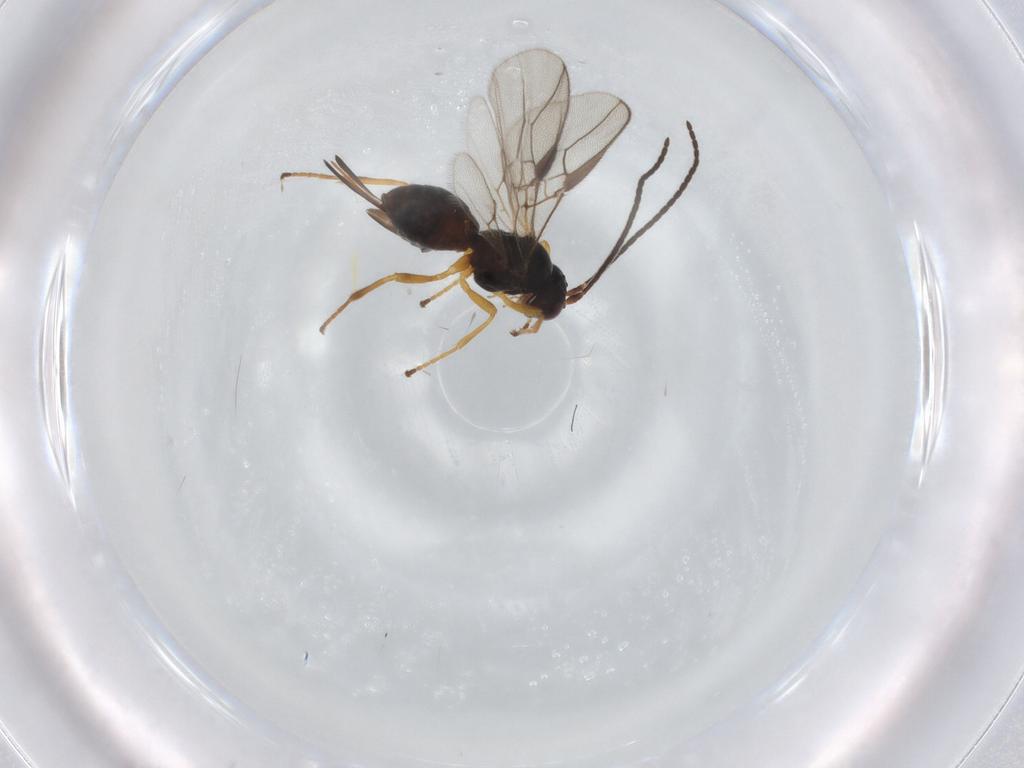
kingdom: Animalia
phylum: Arthropoda
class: Insecta
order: Hymenoptera
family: Braconidae
